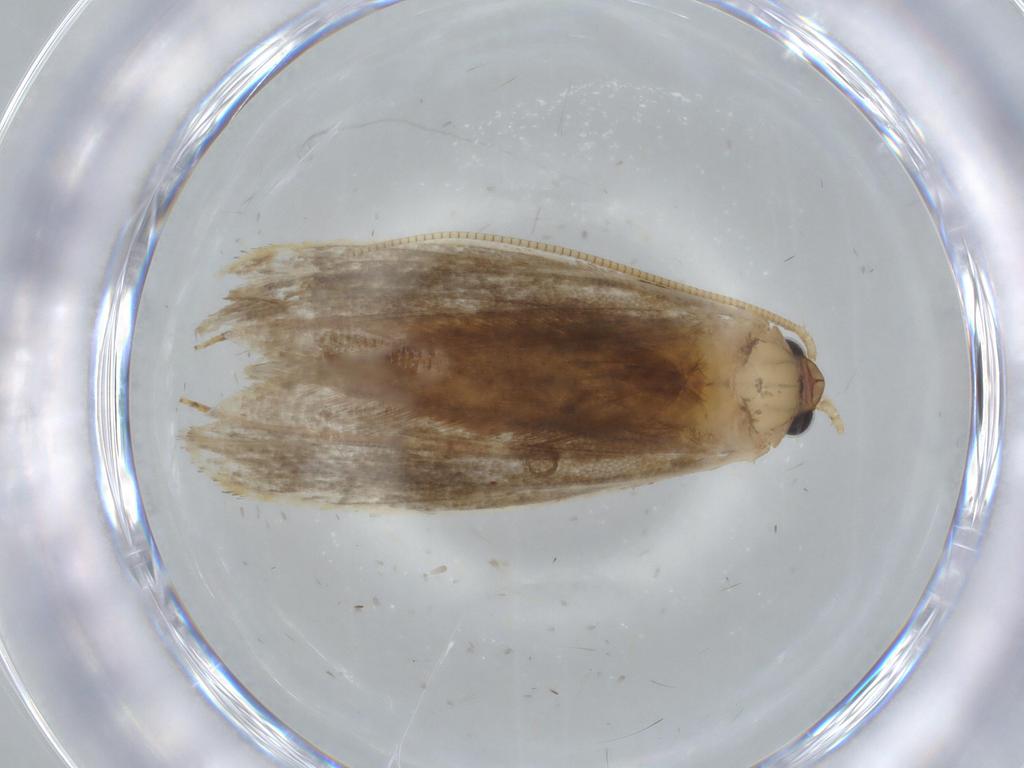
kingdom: Animalia
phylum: Arthropoda
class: Insecta
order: Lepidoptera
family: Tineidae
